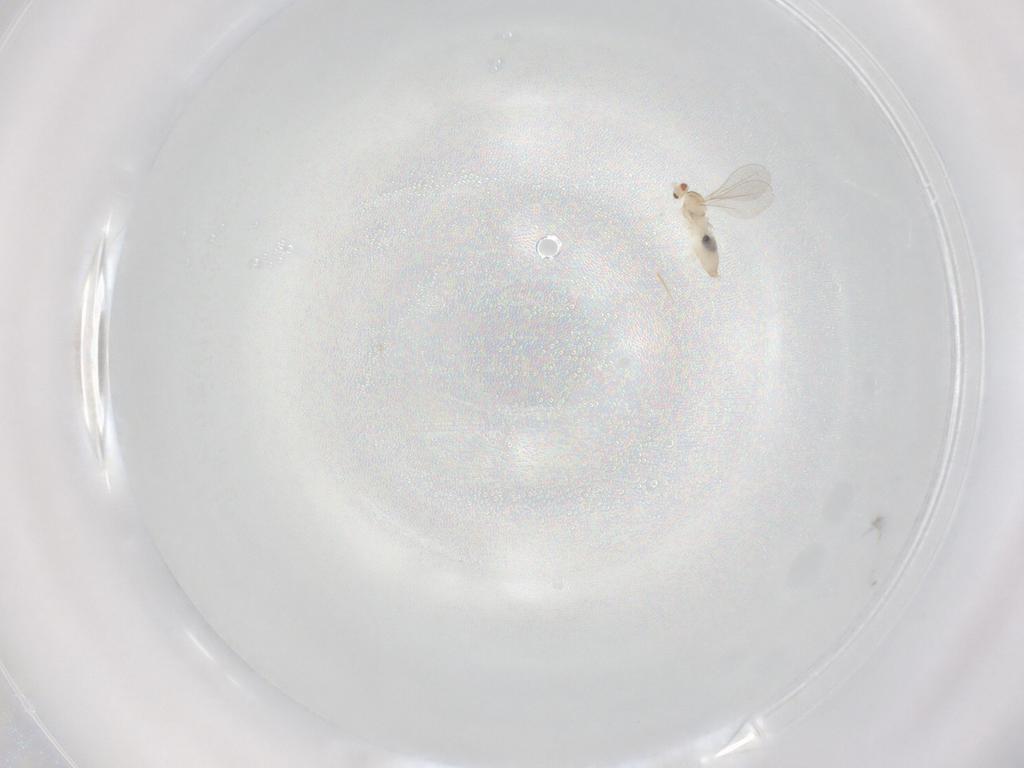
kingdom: Animalia
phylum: Arthropoda
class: Insecta
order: Diptera
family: Cecidomyiidae
